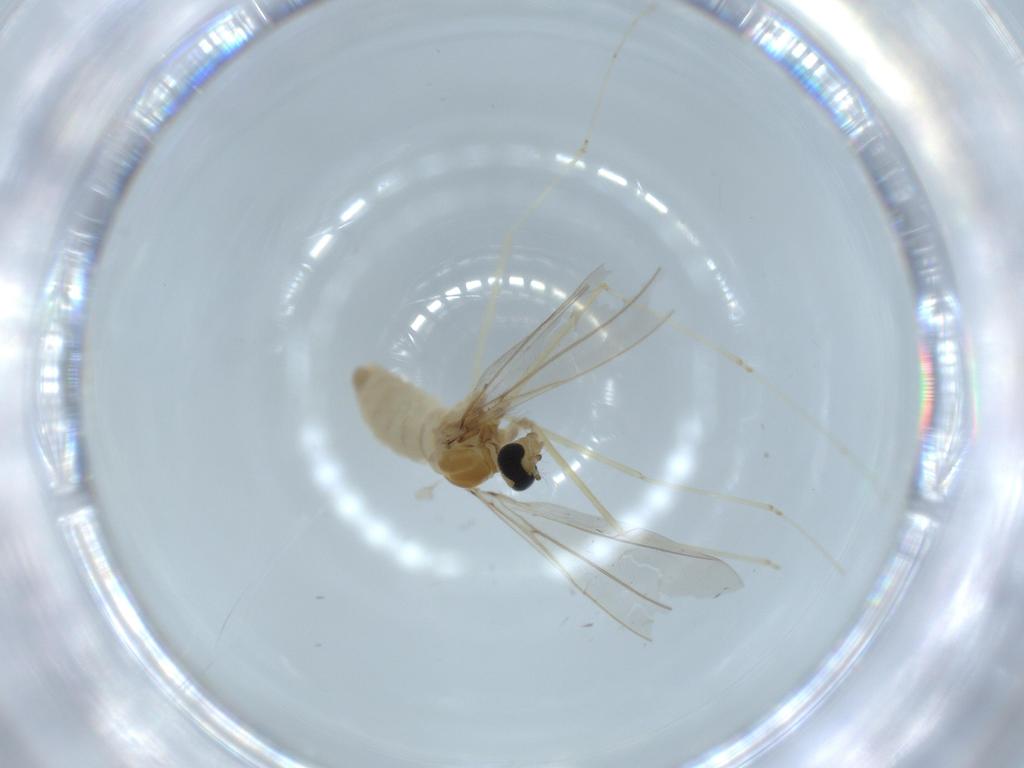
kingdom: Animalia
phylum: Arthropoda
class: Insecta
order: Diptera
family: Cecidomyiidae
